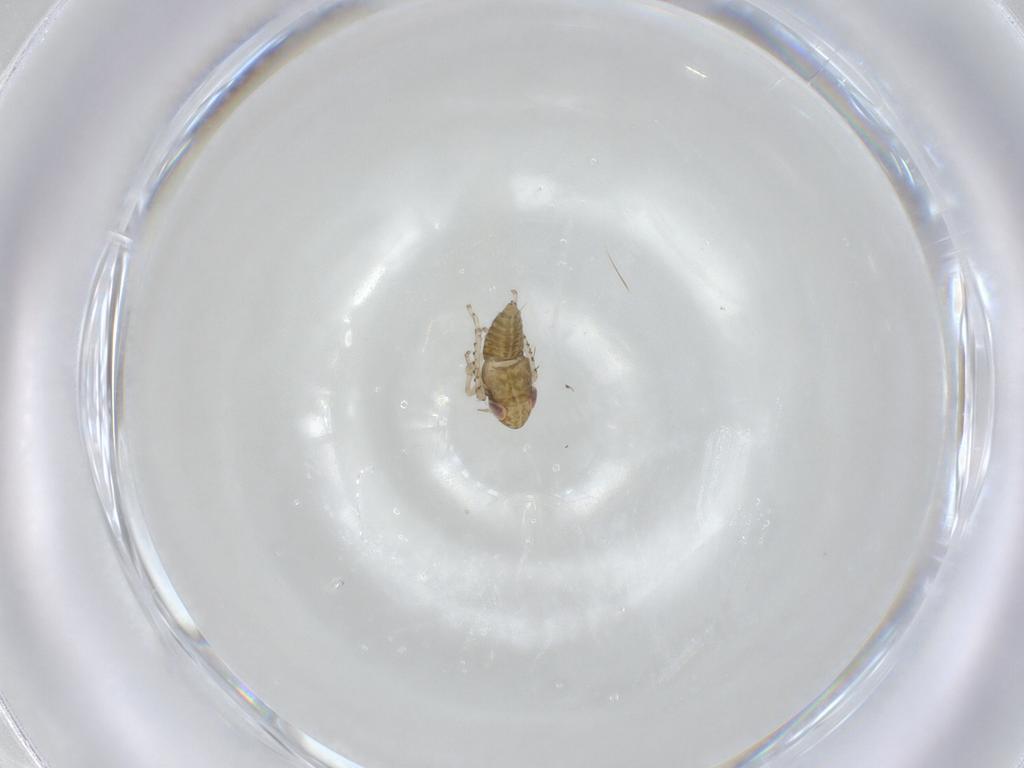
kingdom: Animalia
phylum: Arthropoda
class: Insecta
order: Hemiptera
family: Cicadellidae
